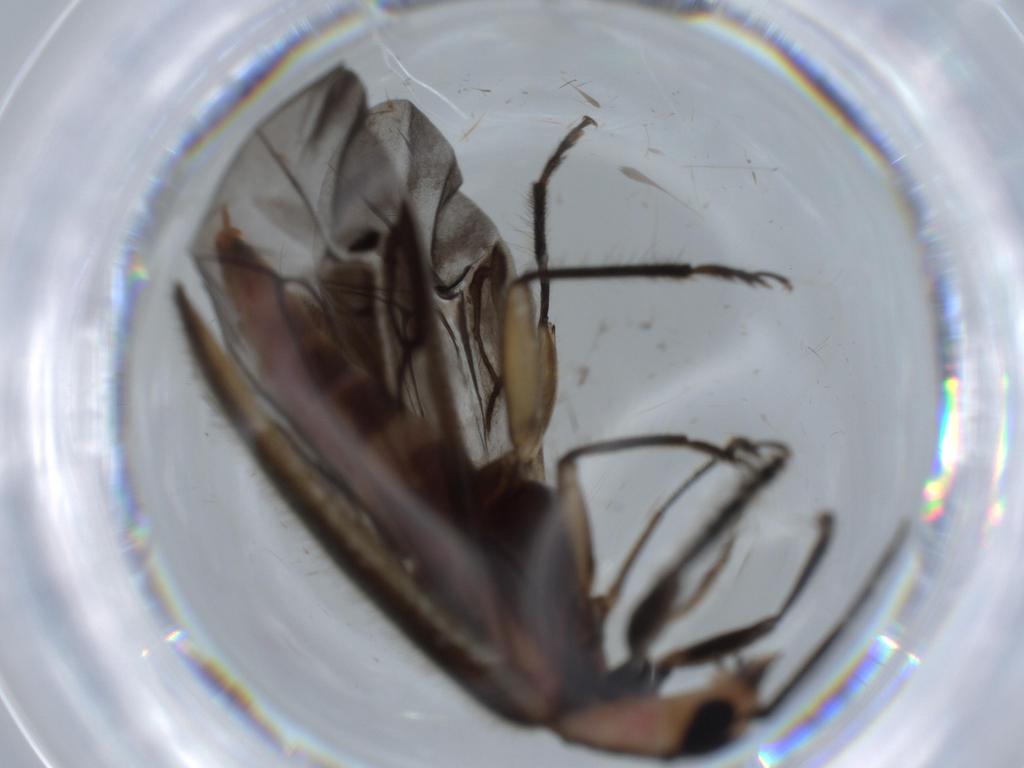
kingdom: Animalia
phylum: Arthropoda
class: Insecta
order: Coleoptera
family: Cleridae
